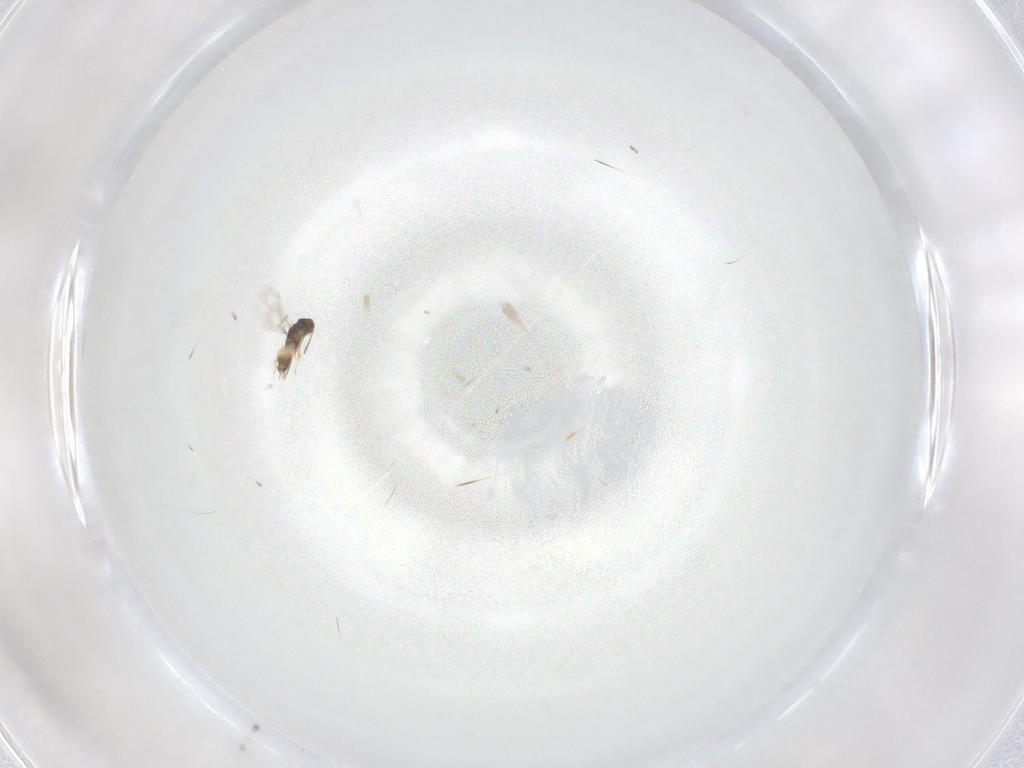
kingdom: Animalia
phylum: Arthropoda
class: Insecta
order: Hymenoptera
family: Mymaridae
